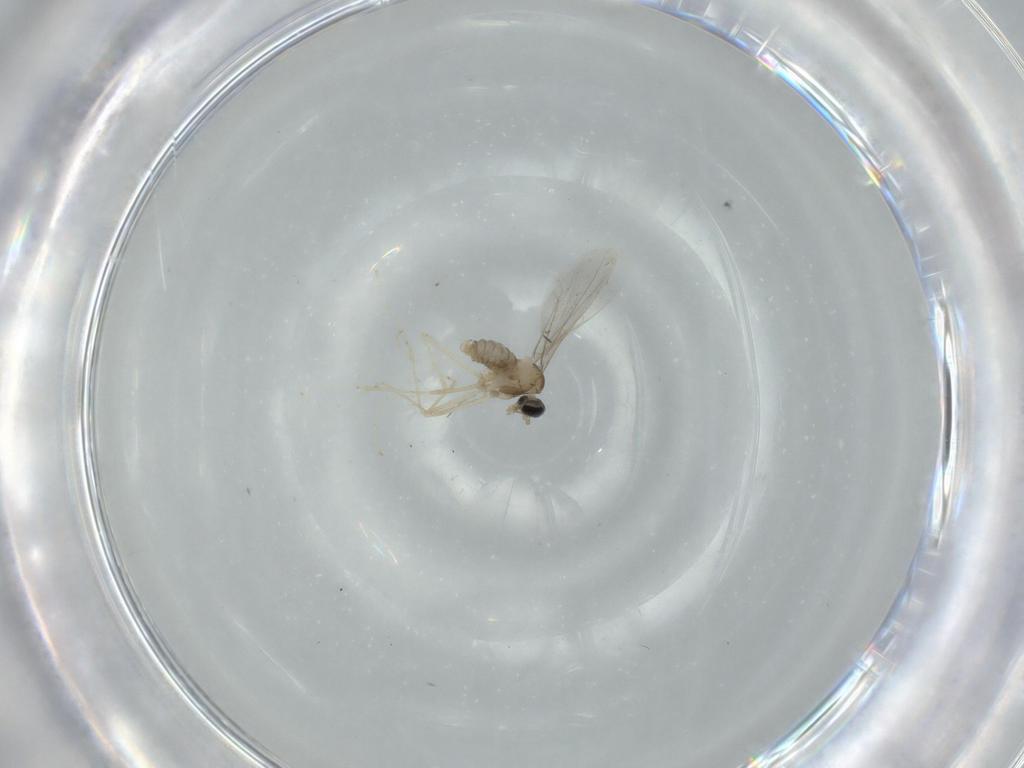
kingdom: Animalia
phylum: Arthropoda
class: Insecta
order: Diptera
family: Cecidomyiidae
